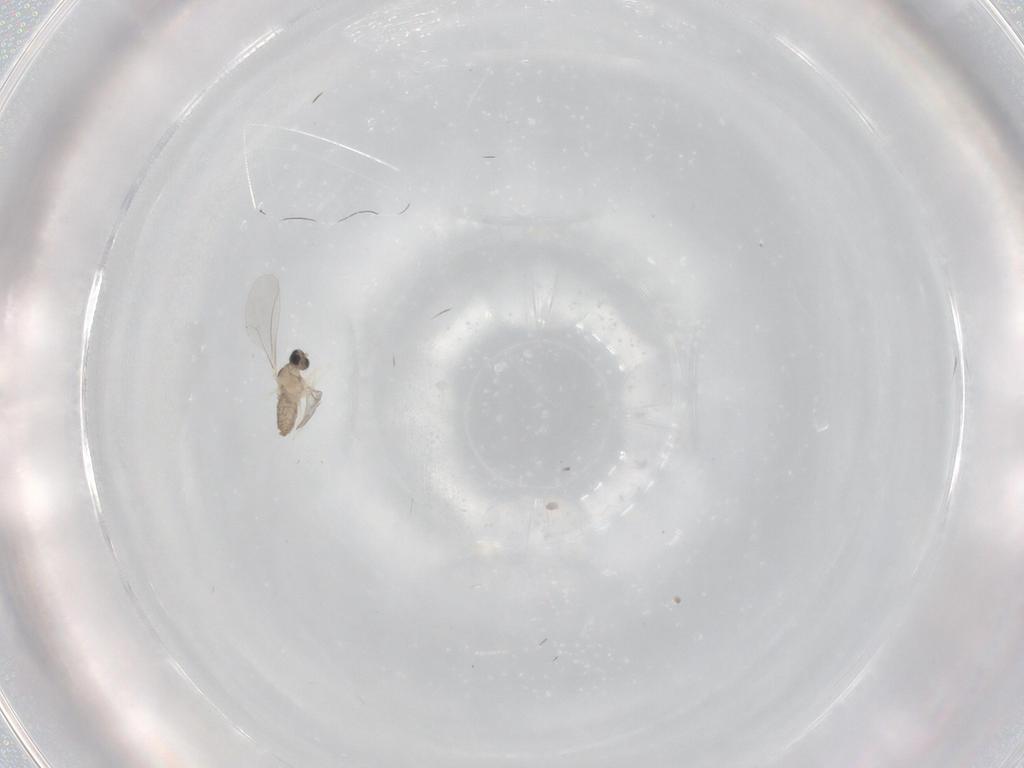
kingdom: Animalia
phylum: Arthropoda
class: Insecta
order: Diptera
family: Cecidomyiidae
